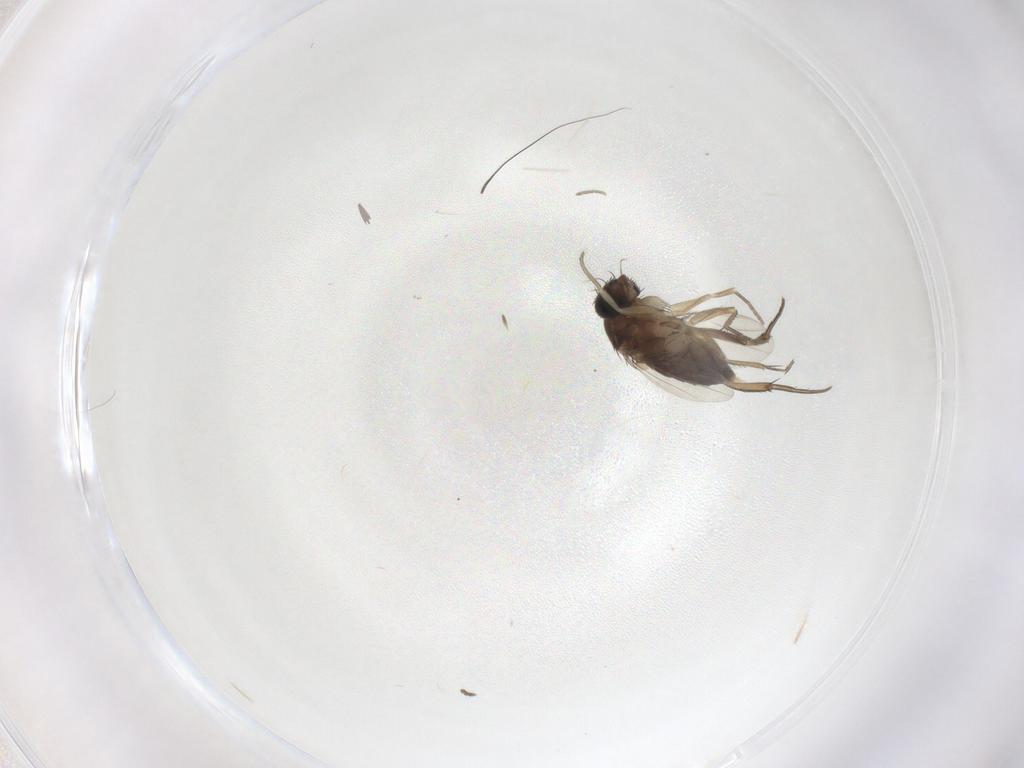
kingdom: Animalia
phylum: Arthropoda
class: Insecta
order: Diptera
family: Phoridae
